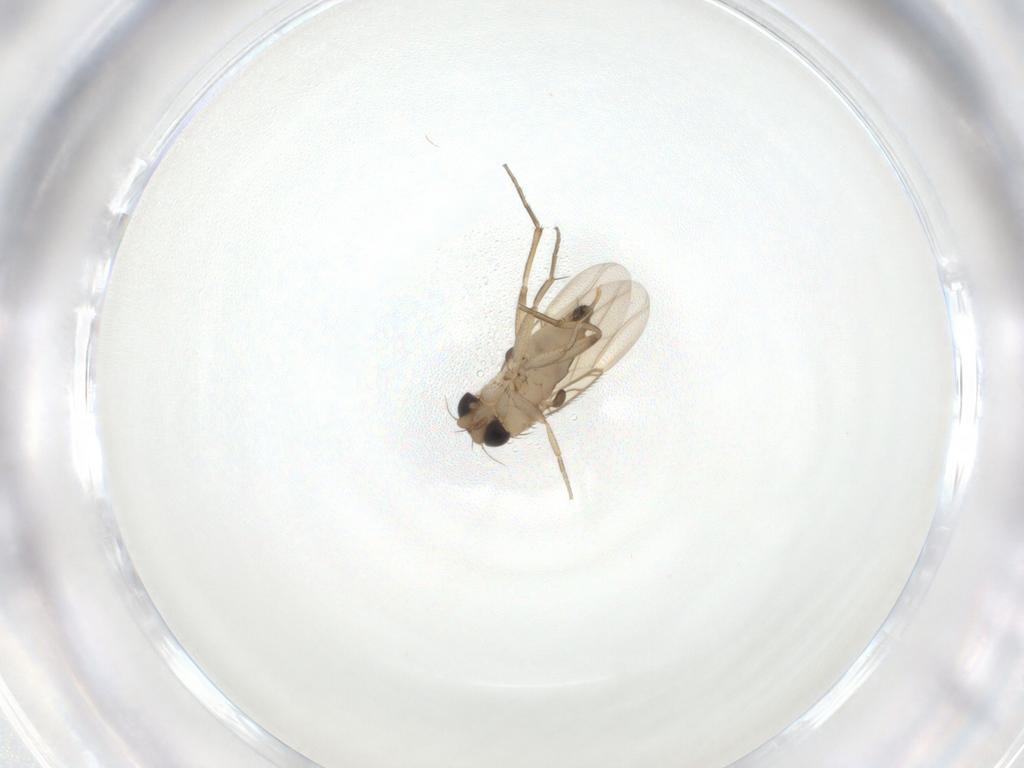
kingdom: Animalia
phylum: Arthropoda
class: Insecta
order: Diptera
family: Phoridae
